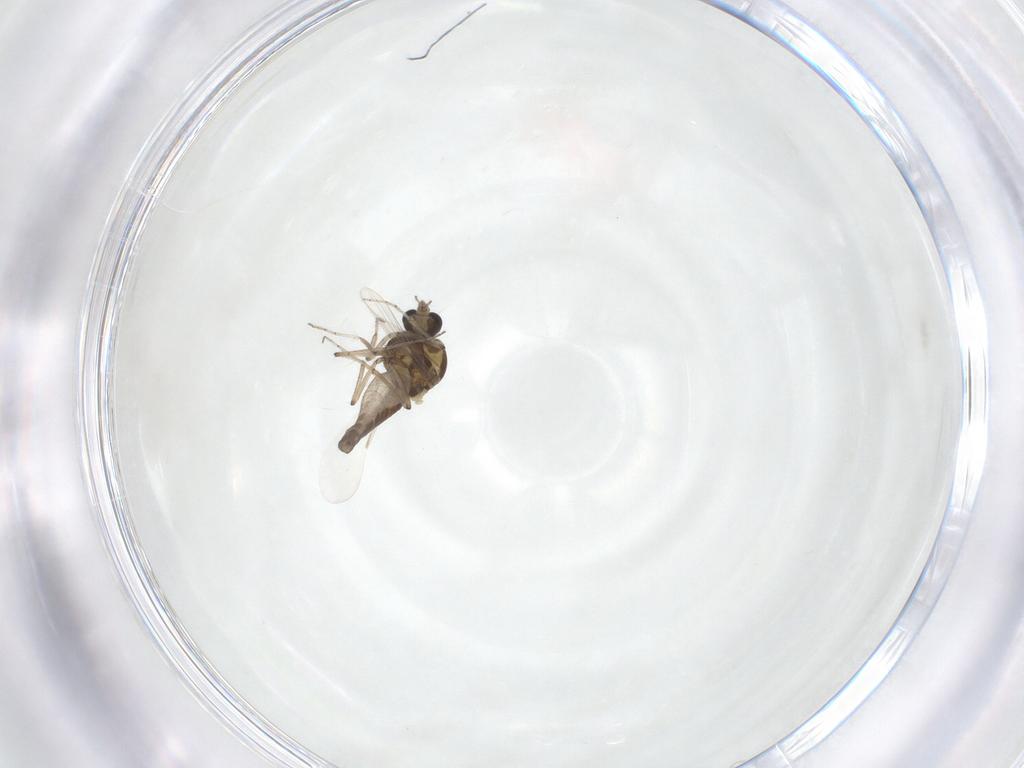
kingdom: Animalia
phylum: Arthropoda
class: Insecta
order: Diptera
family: Ceratopogonidae
